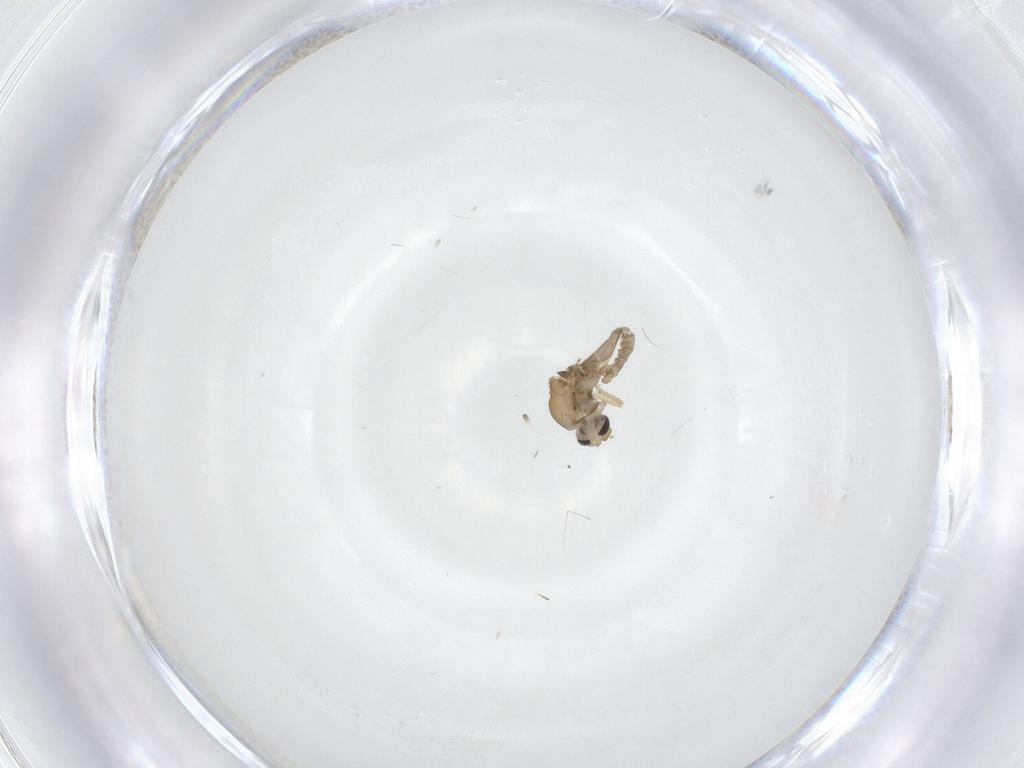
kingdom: Animalia
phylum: Arthropoda
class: Insecta
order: Diptera
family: Ceratopogonidae
